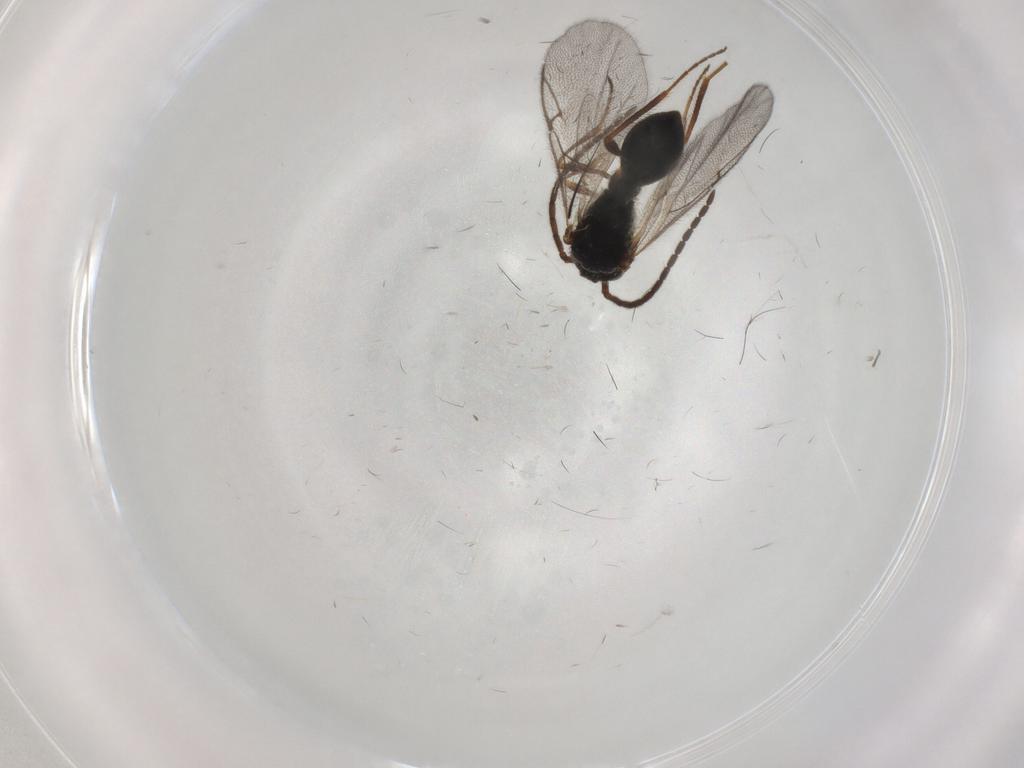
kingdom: Animalia
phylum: Arthropoda
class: Insecta
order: Hymenoptera
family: Diapriidae
